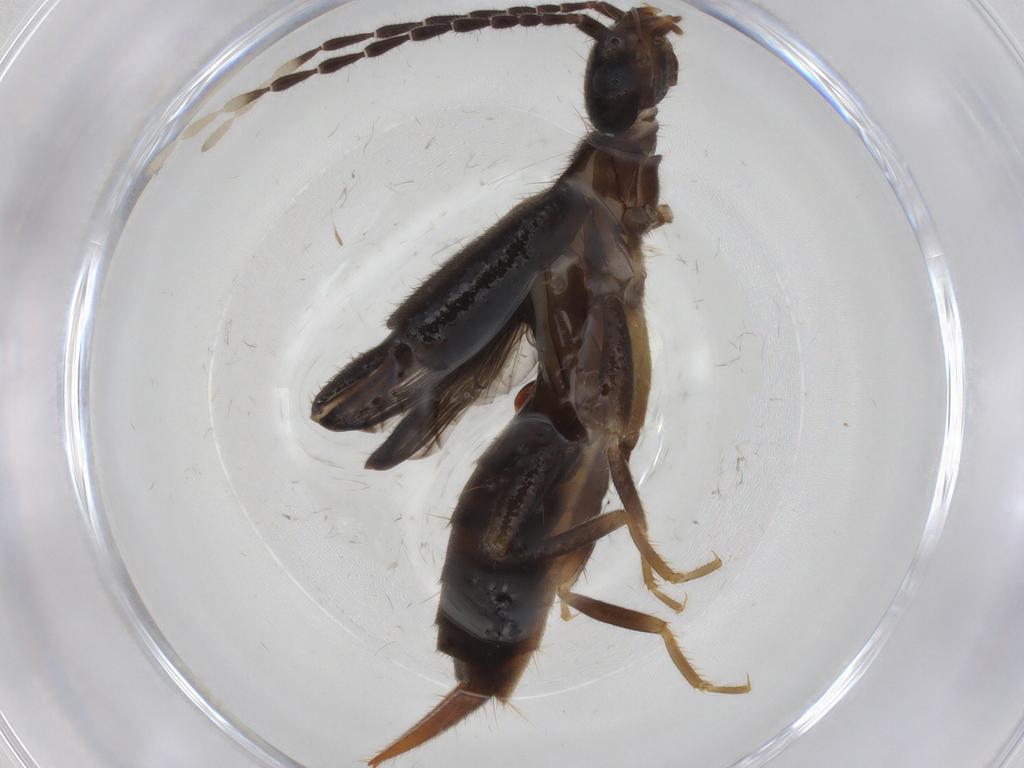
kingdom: Animalia
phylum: Arthropoda
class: Insecta
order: Dermaptera
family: Forficulidae
